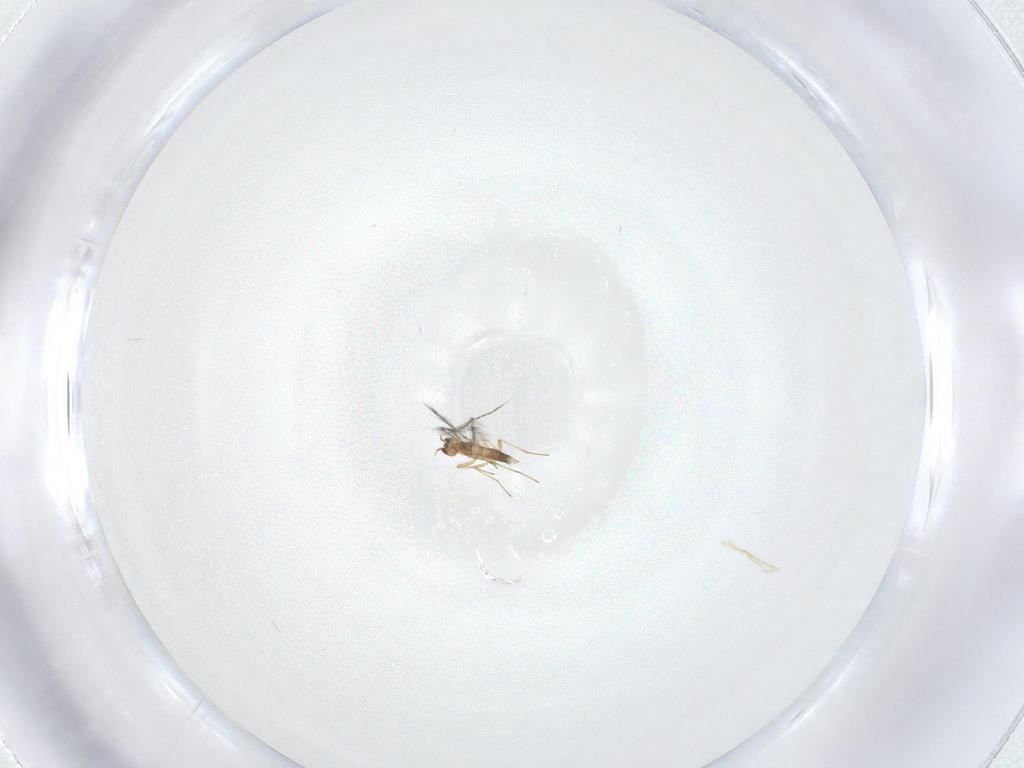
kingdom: Animalia
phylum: Arthropoda
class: Insecta
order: Hymenoptera
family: Mymaridae
